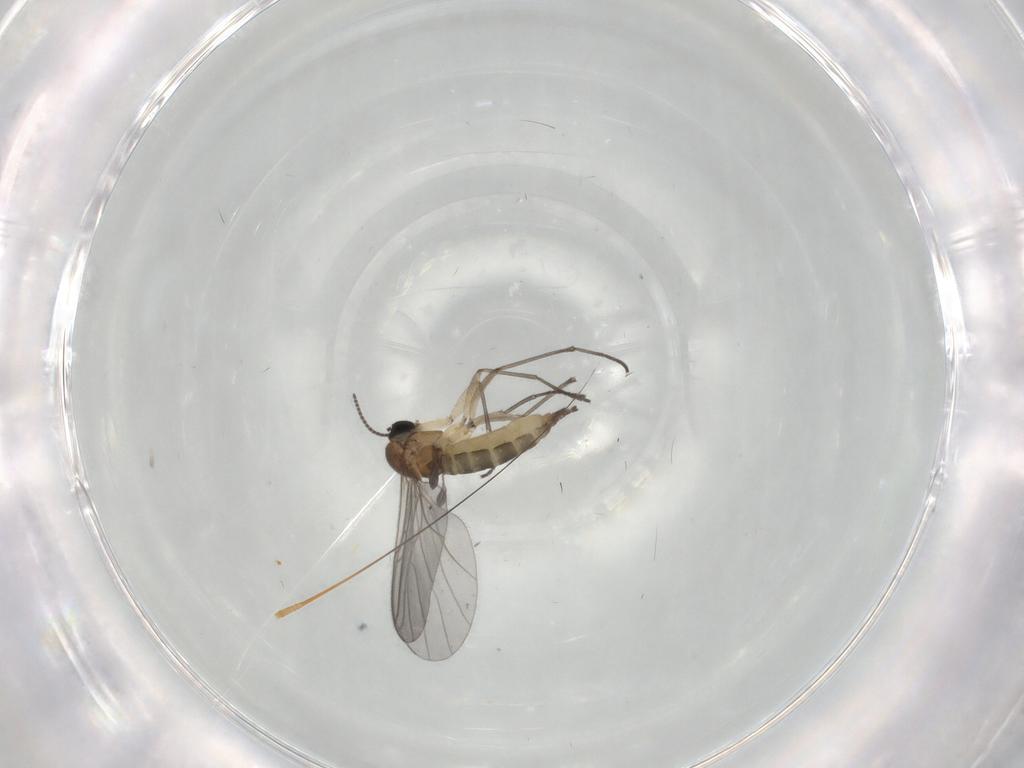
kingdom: Animalia
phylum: Arthropoda
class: Insecta
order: Diptera
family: Sciaridae
